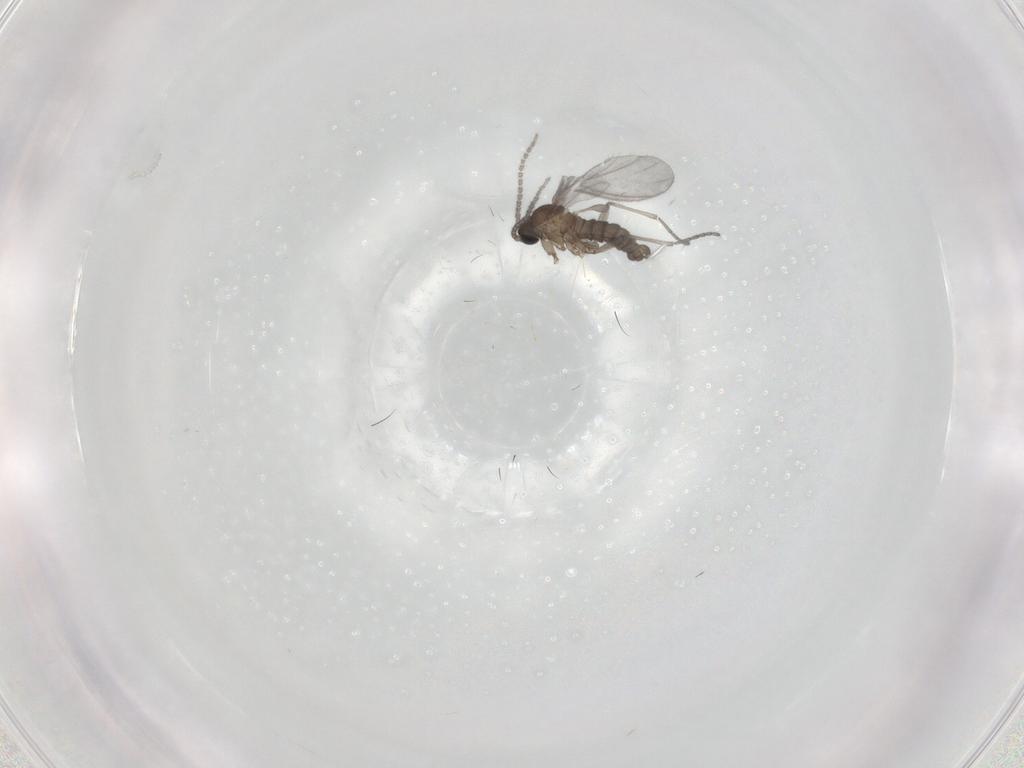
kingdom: Animalia
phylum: Arthropoda
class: Insecta
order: Diptera
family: Sciaridae
